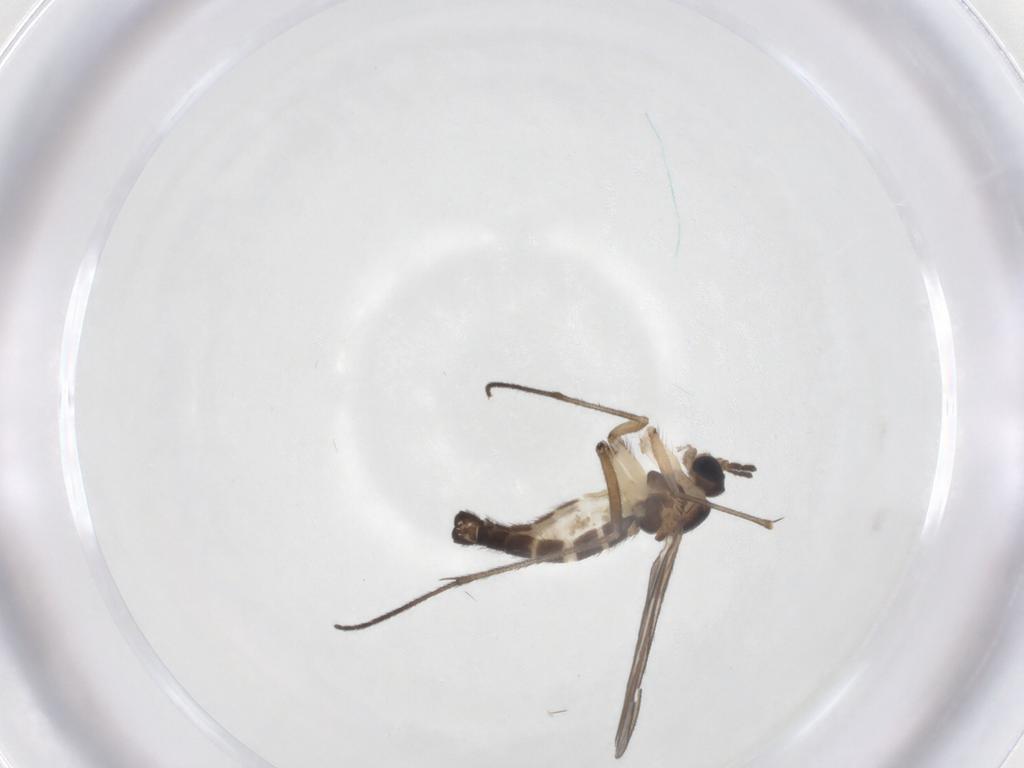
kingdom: Animalia
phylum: Arthropoda
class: Insecta
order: Diptera
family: Sciaridae
